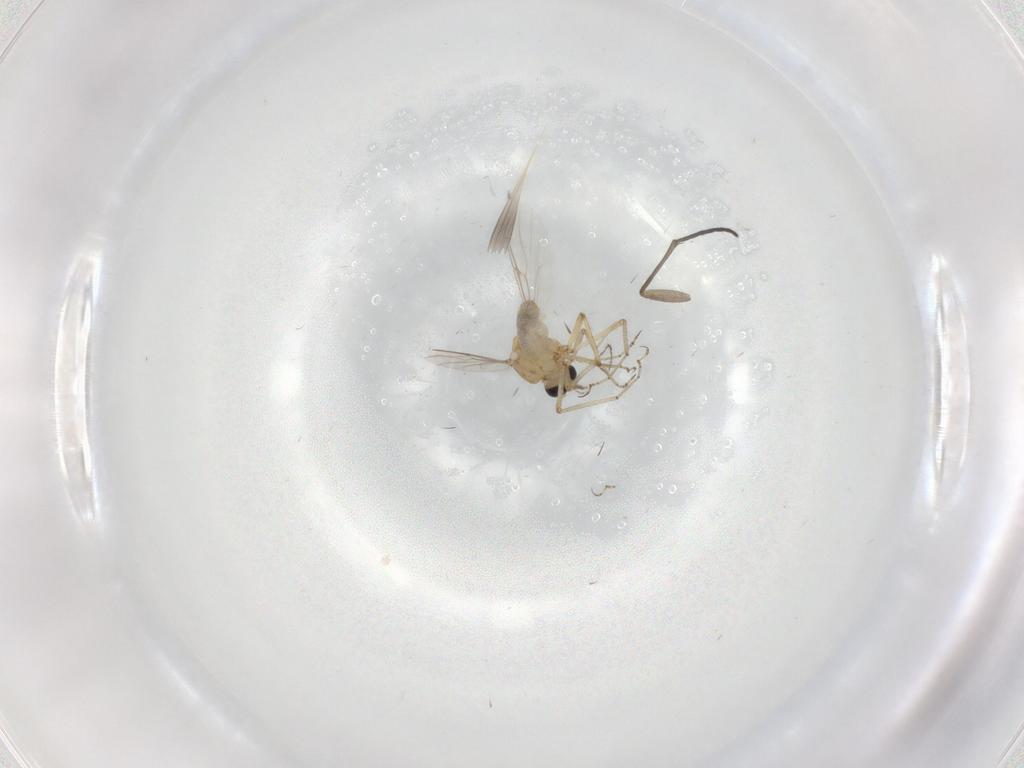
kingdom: Animalia
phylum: Arthropoda
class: Insecta
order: Diptera
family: Sciaridae
